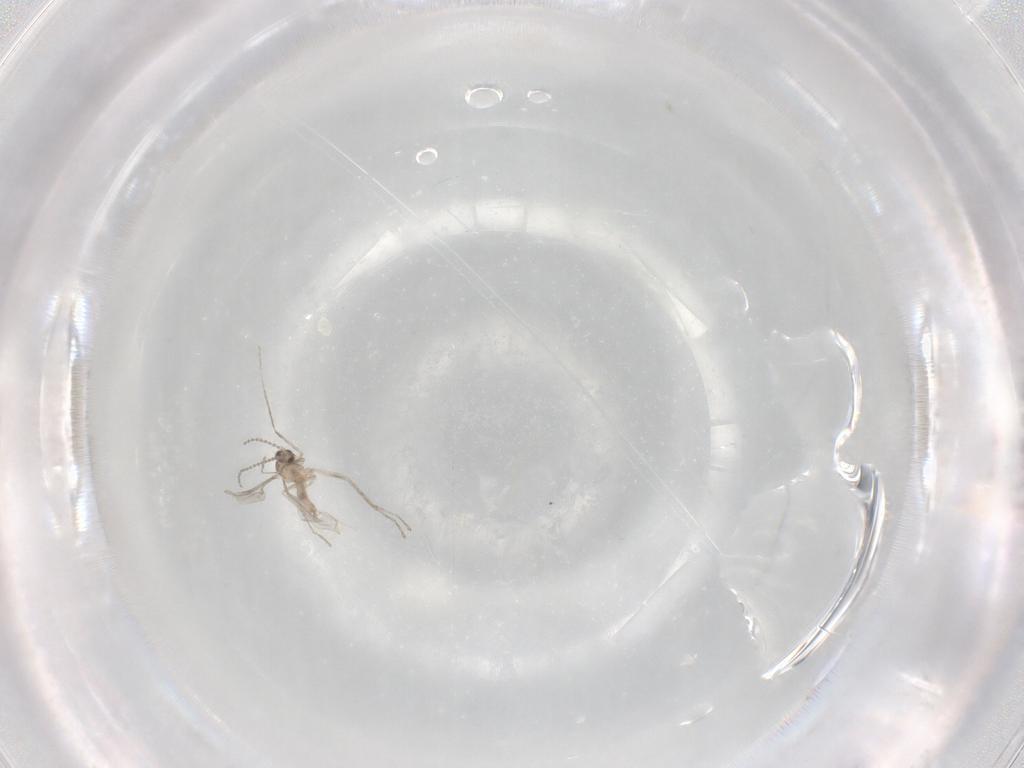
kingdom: Animalia
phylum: Arthropoda
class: Insecta
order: Diptera
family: Cecidomyiidae
